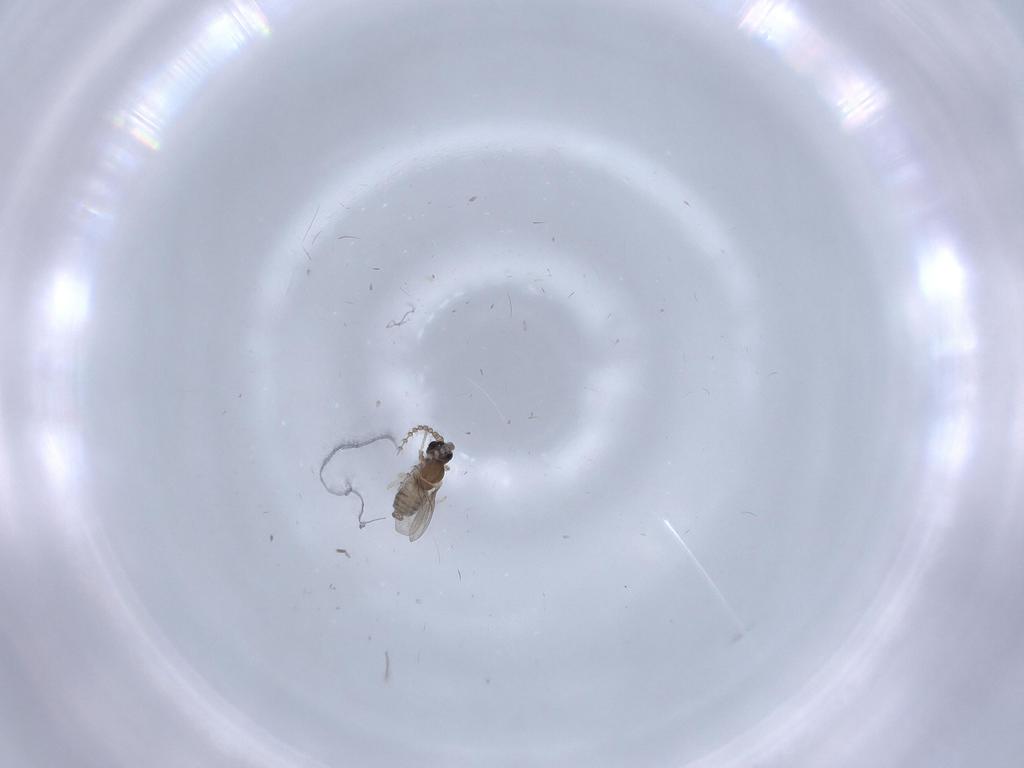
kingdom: Animalia
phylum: Arthropoda
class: Insecta
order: Diptera
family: Cecidomyiidae
